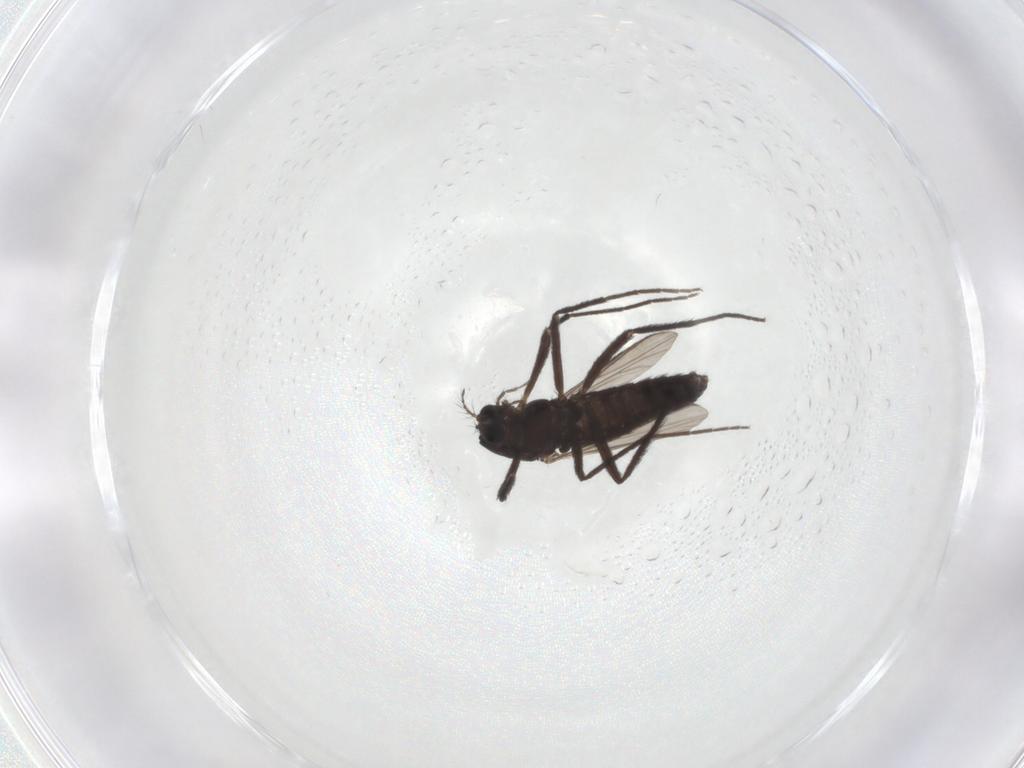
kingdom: Animalia
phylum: Arthropoda
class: Insecta
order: Diptera
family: Chironomidae
